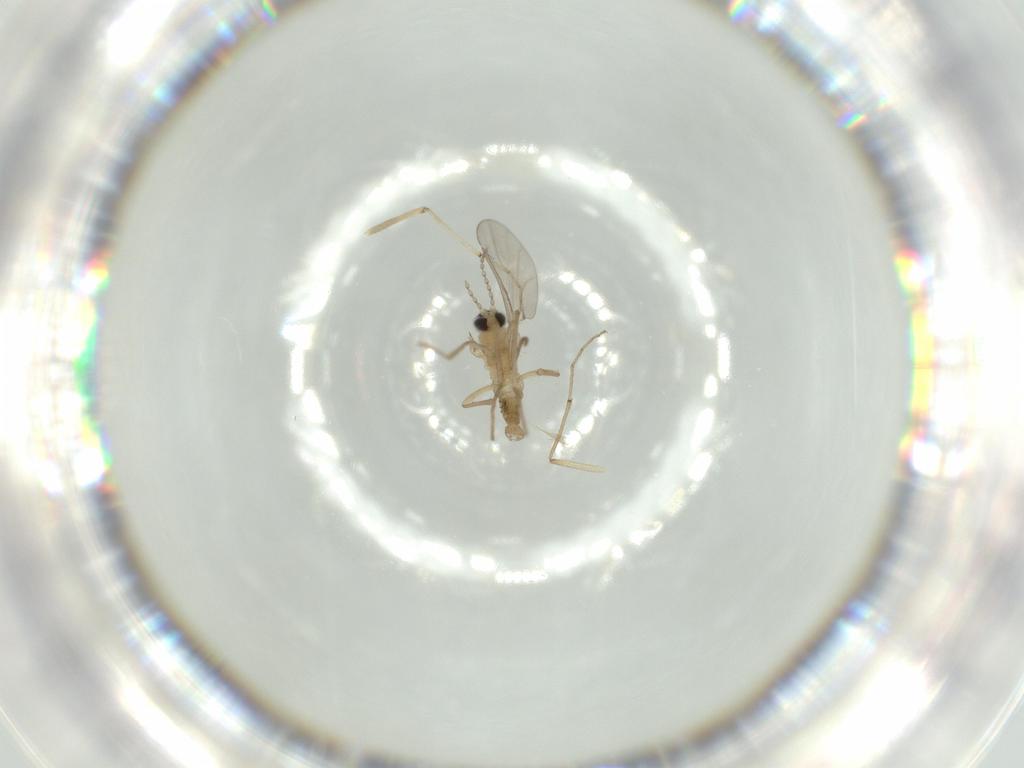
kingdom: Animalia
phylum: Arthropoda
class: Insecta
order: Diptera
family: Chironomidae
